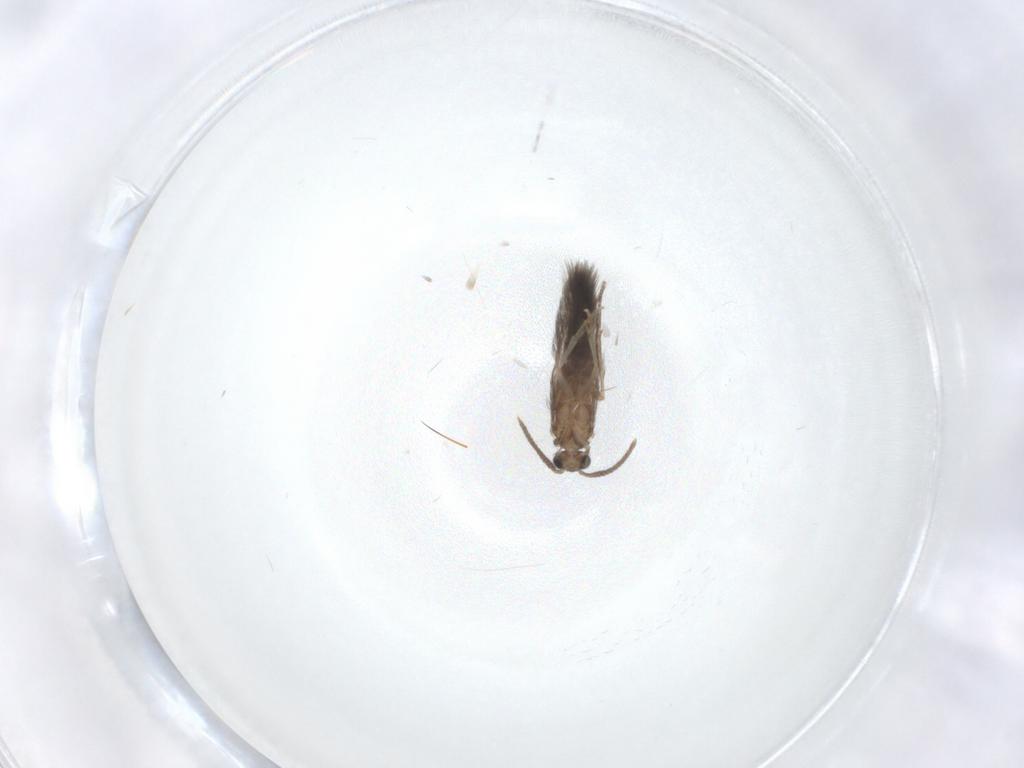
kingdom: Animalia
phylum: Arthropoda
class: Insecta
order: Trichoptera
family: Hydroptilidae
